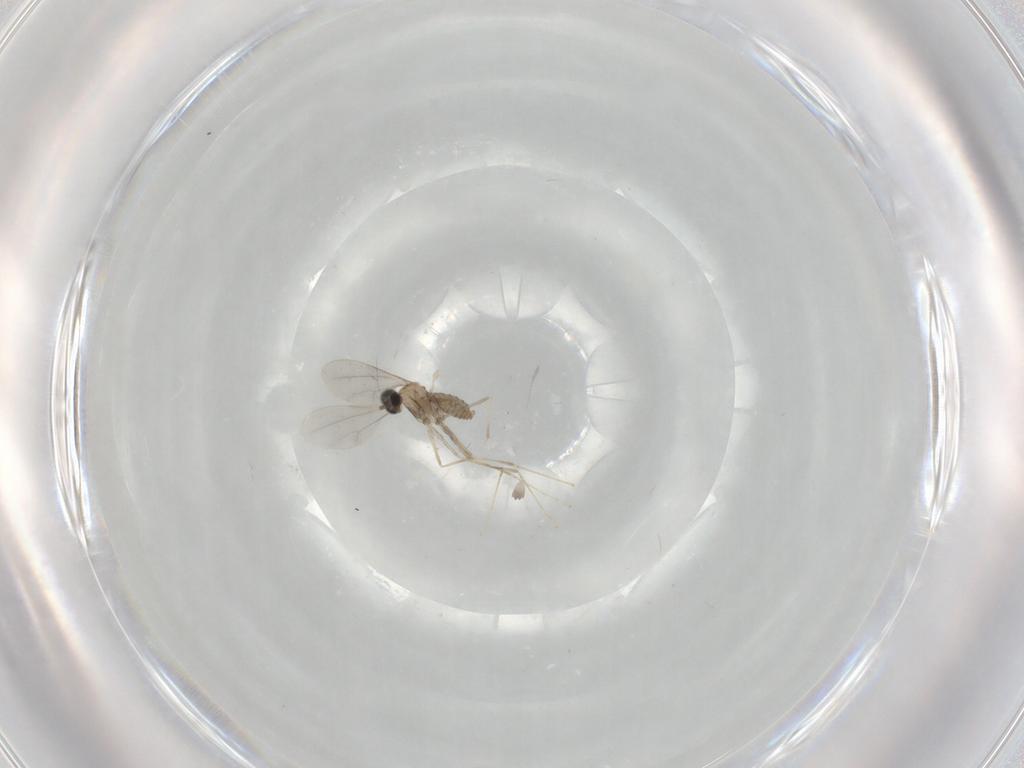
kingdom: Animalia
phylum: Arthropoda
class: Insecta
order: Diptera
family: Cecidomyiidae
